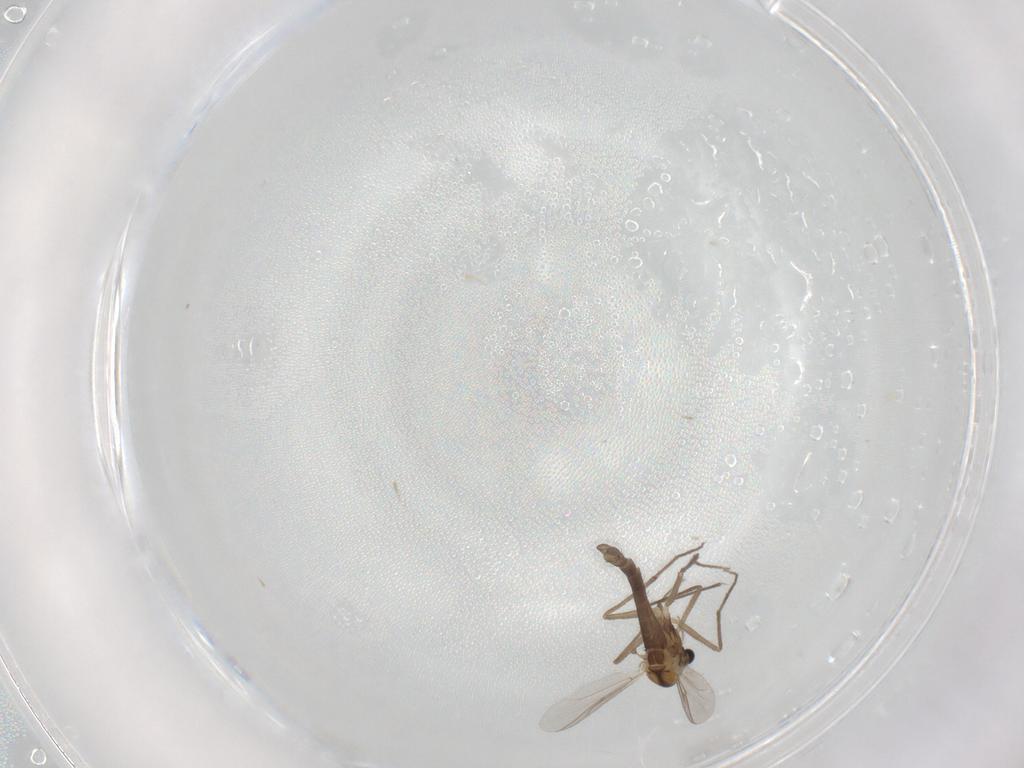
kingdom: Animalia
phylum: Arthropoda
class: Insecta
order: Diptera
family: Chironomidae
